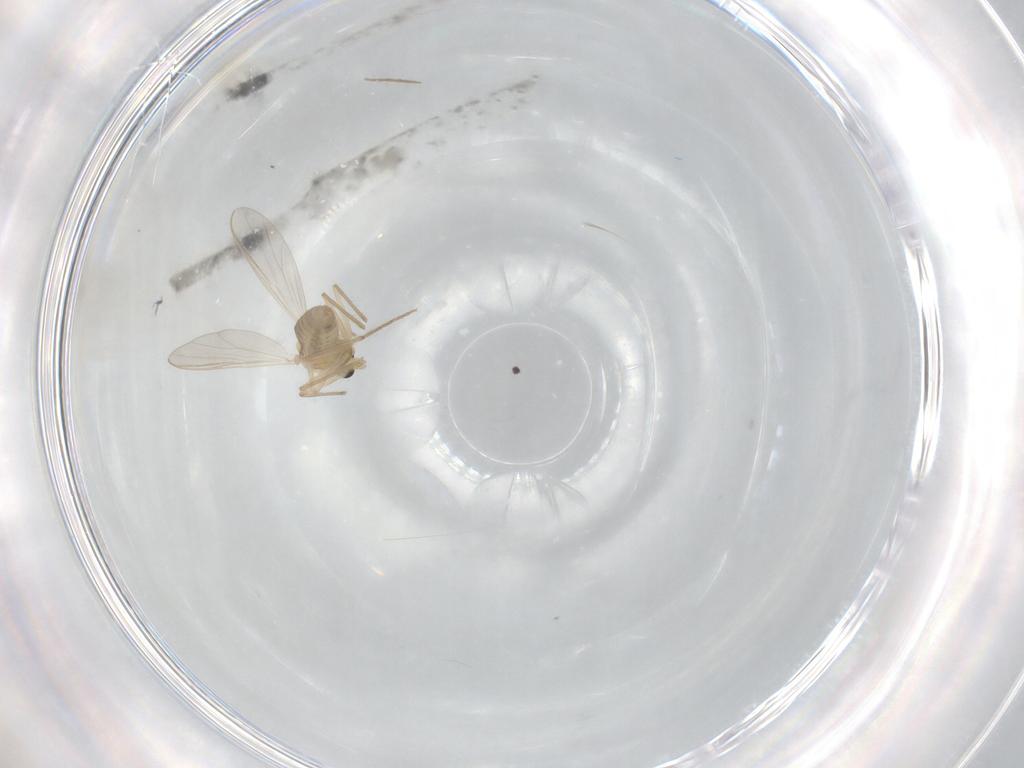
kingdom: Animalia
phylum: Arthropoda
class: Insecta
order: Diptera
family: Chironomidae
